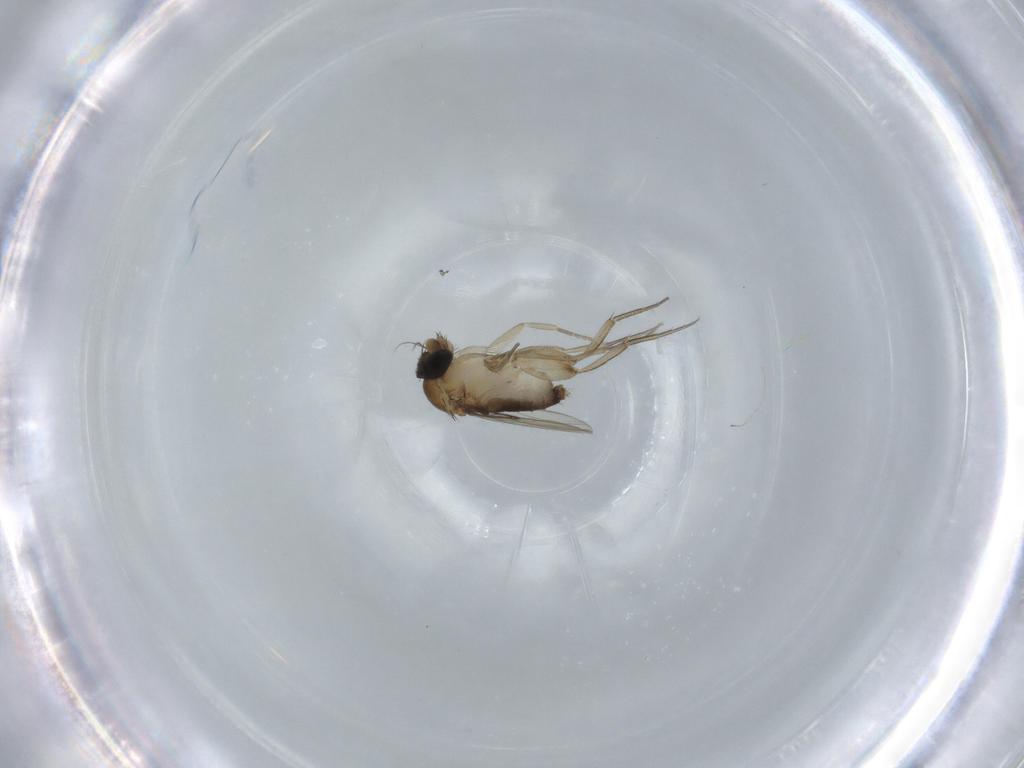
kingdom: Animalia
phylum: Arthropoda
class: Insecta
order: Diptera
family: Phoridae
